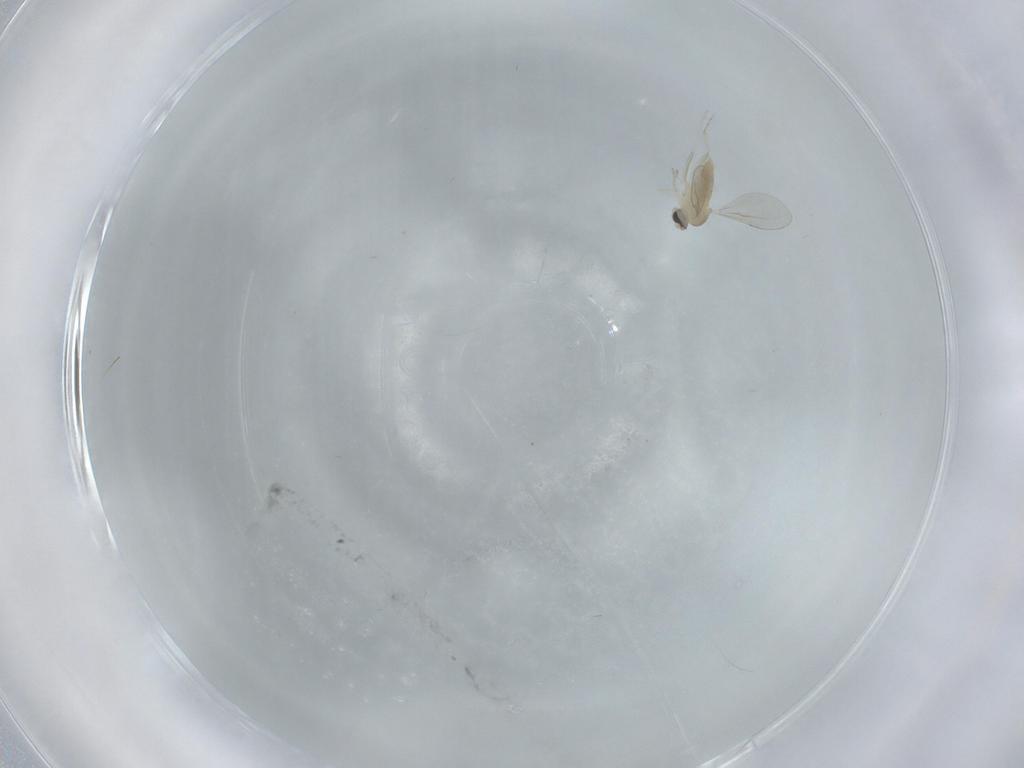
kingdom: Animalia
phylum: Arthropoda
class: Insecta
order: Diptera
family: Cecidomyiidae
